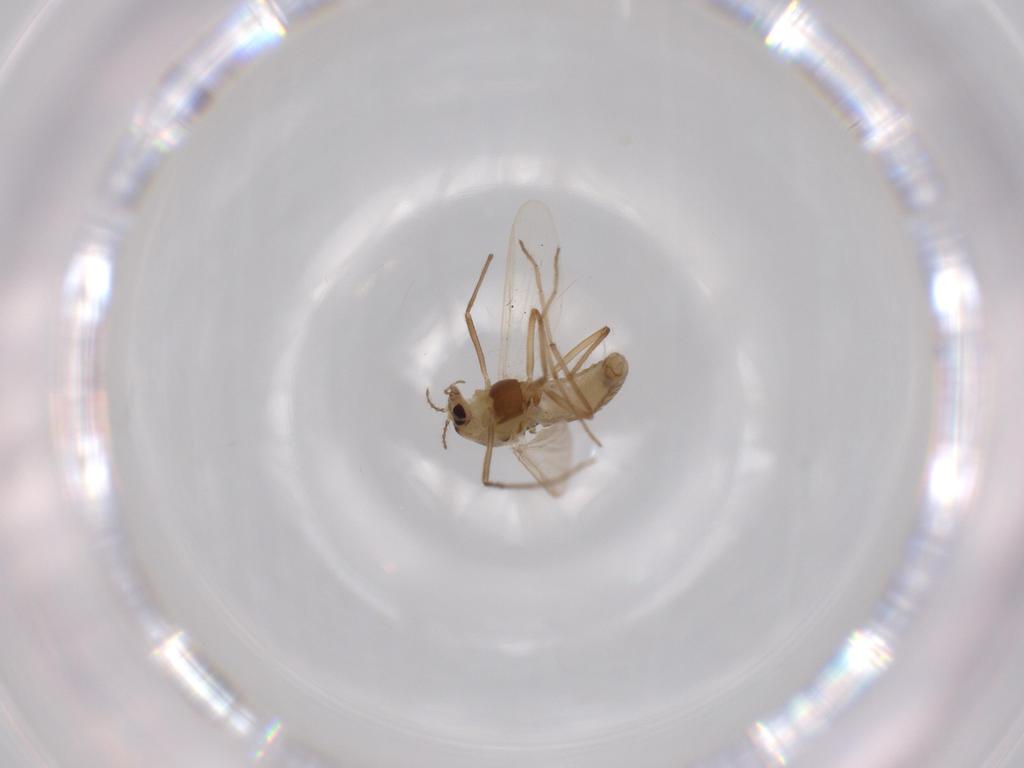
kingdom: Animalia
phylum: Arthropoda
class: Insecta
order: Diptera
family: Chironomidae
